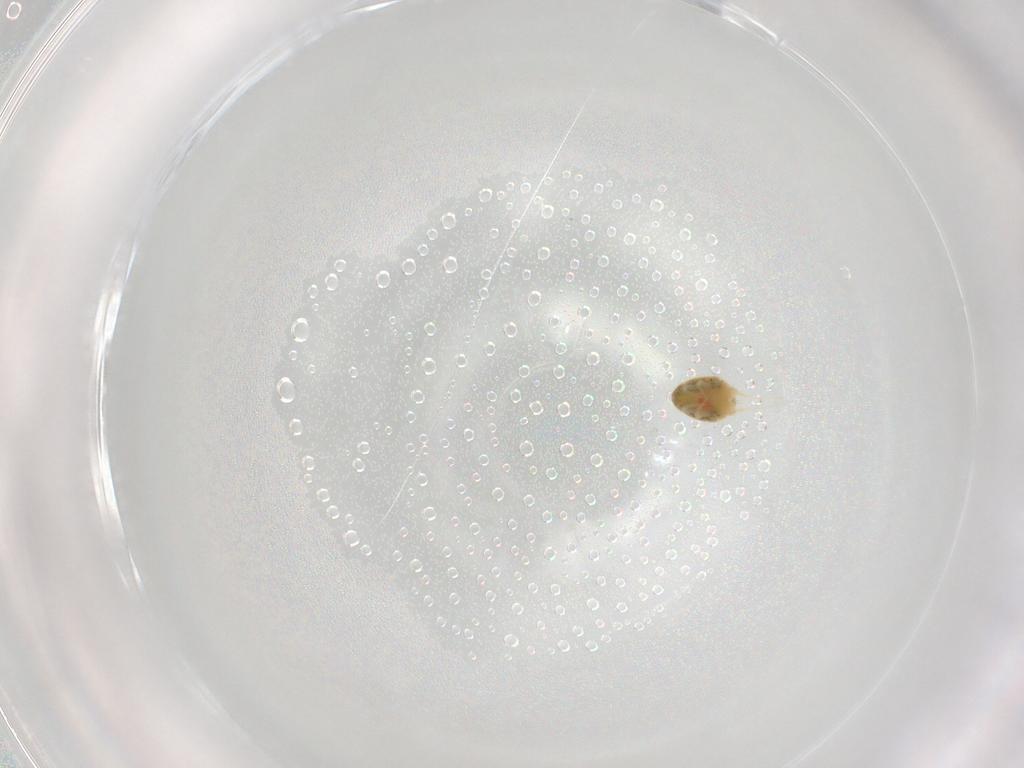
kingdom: Animalia
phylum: Arthropoda
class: Arachnida
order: Trombidiformes
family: Tetranychidae
